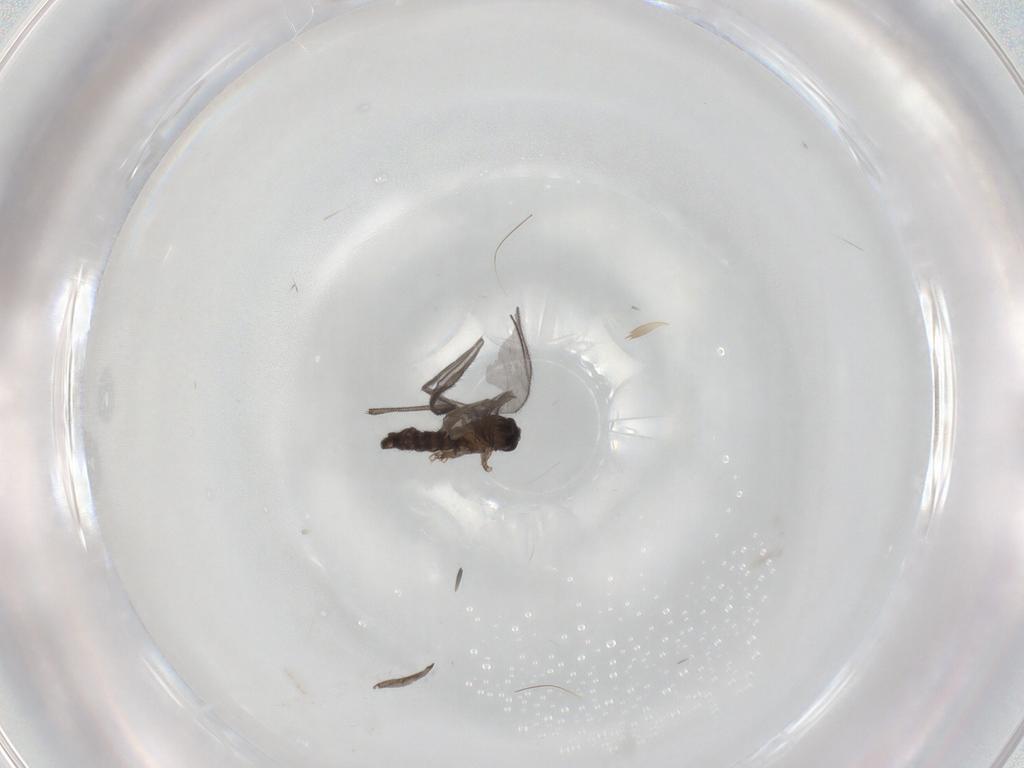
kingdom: Animalia
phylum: Arthropoda
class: Insecta
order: Diptera
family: Sciaridae
